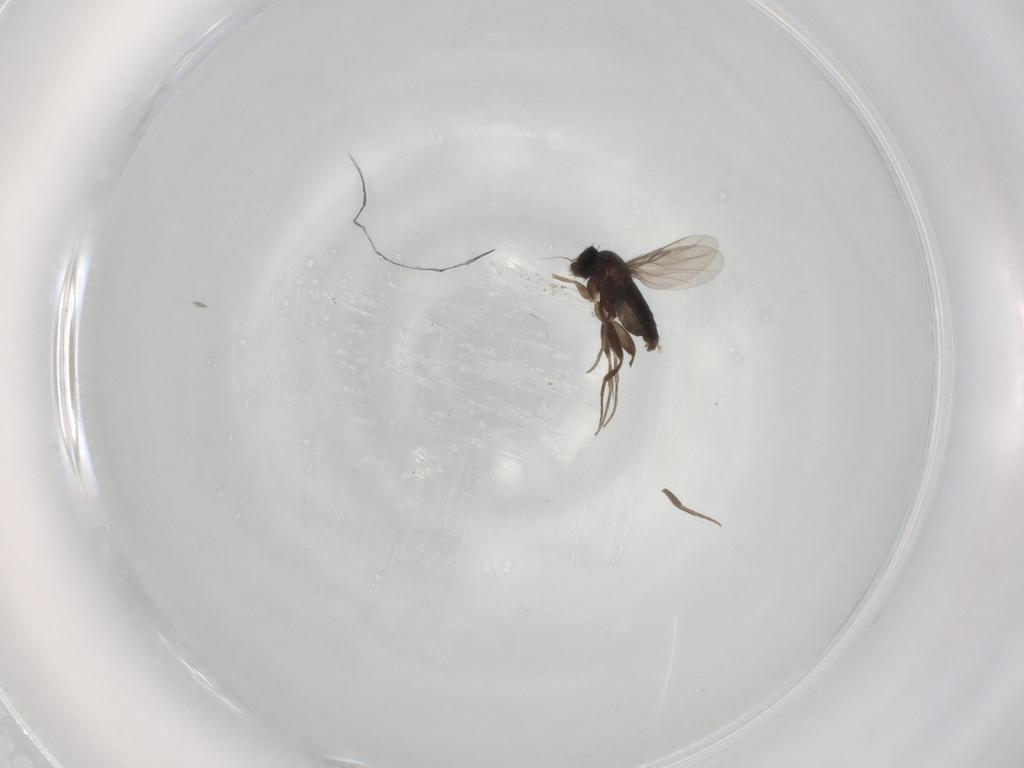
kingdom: Animalia
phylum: Arthropoda
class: Insecta
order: Diptera
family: Phoridae
